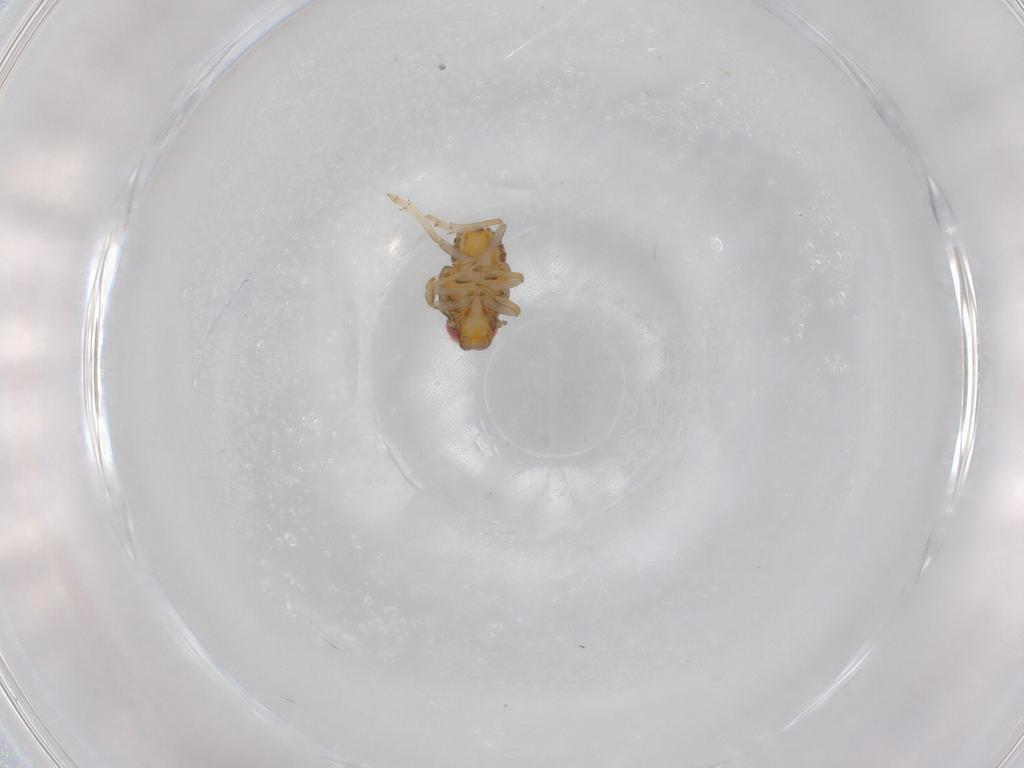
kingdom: Animalia
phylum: Arthropoda
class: Insecta
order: Hemiptera
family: Issidae
